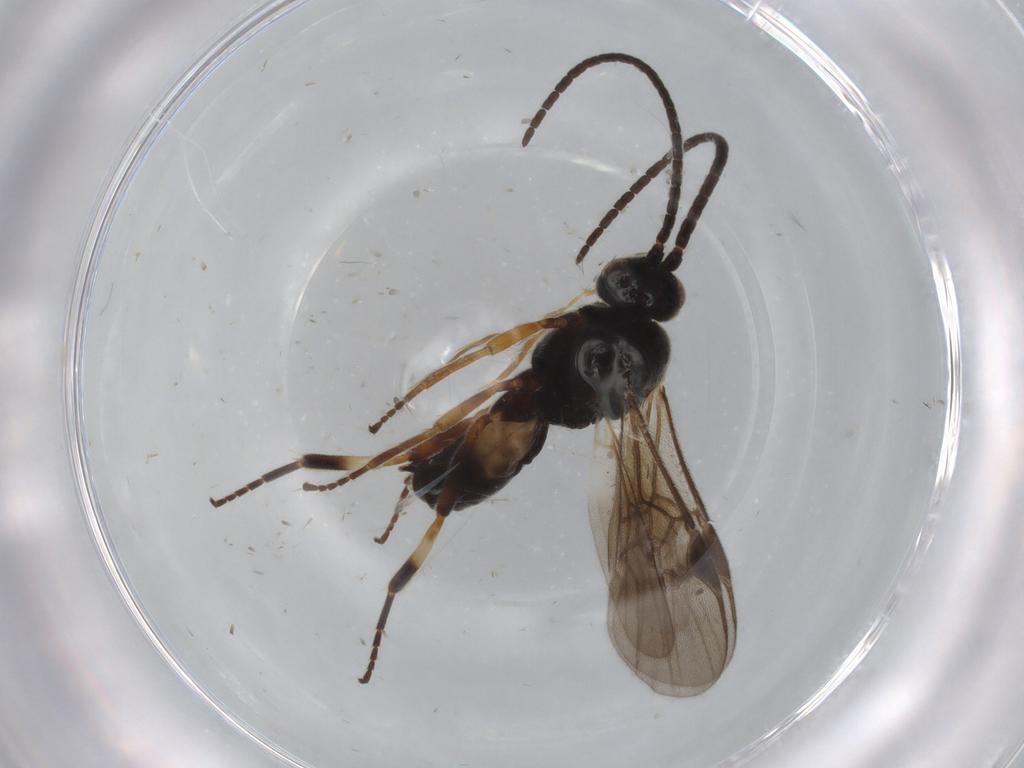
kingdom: Animalia
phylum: Arthropoda
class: Insecta
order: Hymenoptera
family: Braconidae
